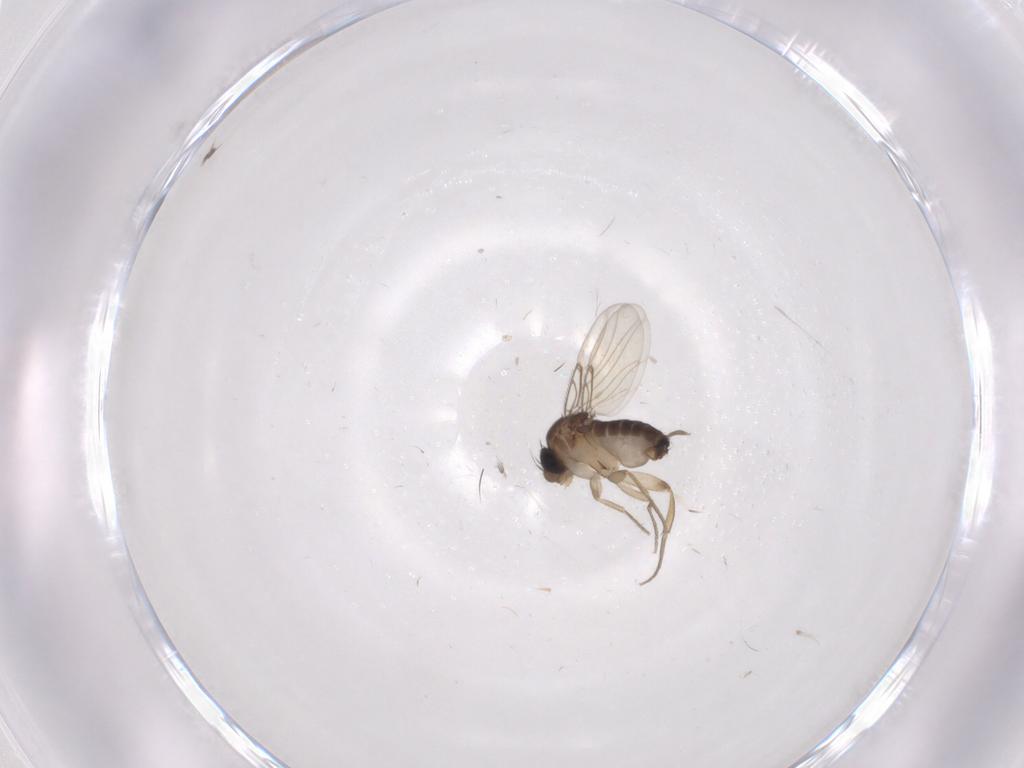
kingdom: Animalia
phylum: Arthropoda
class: Insecta
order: Diptera
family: Phoridae
